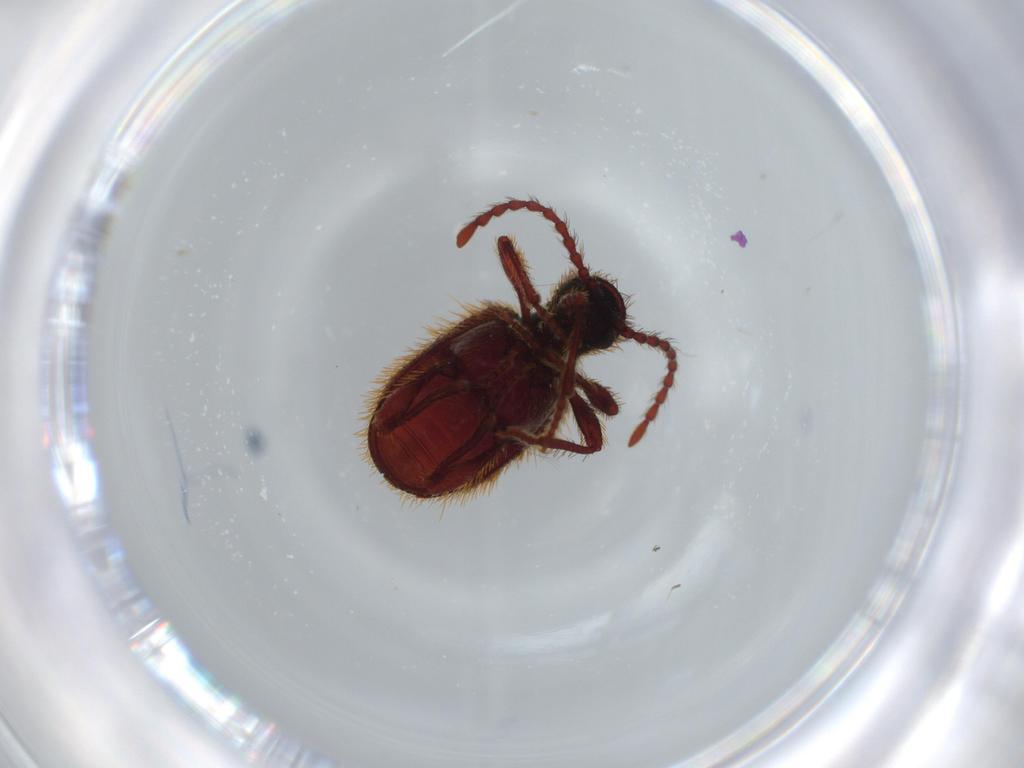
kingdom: Animalia
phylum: Arthropoda
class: Insecta
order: Coleoptera
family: Ptinidae
